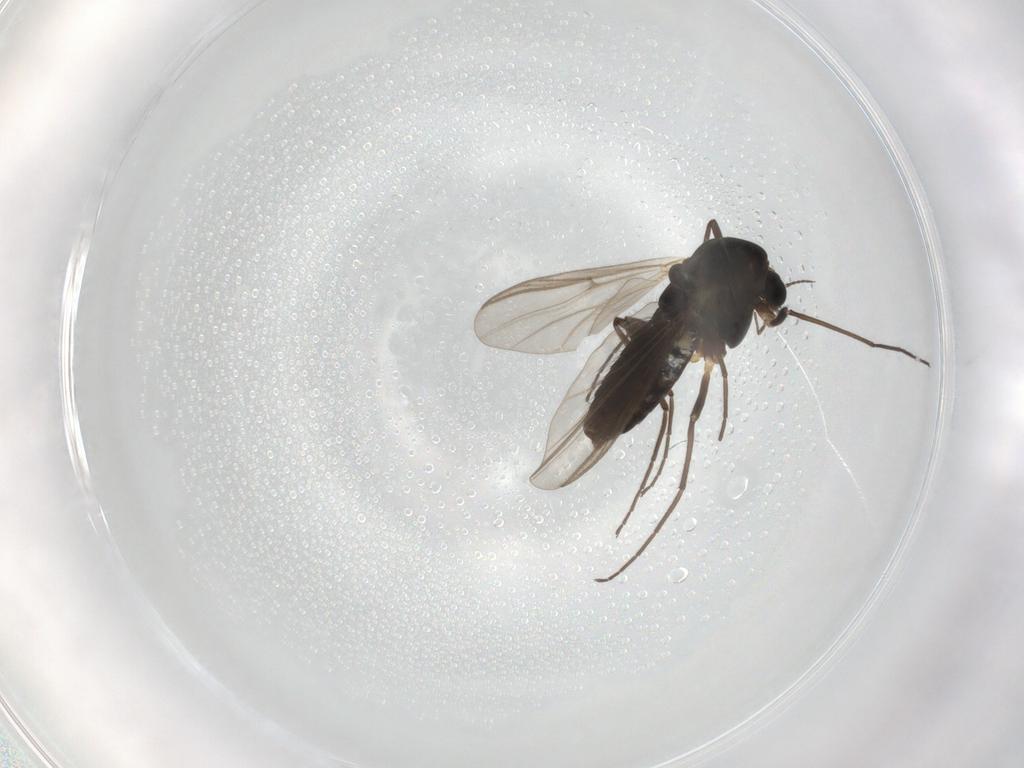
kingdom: Animalia
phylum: Arthropoda
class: Insecta
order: Diptera
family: Chironomidae
